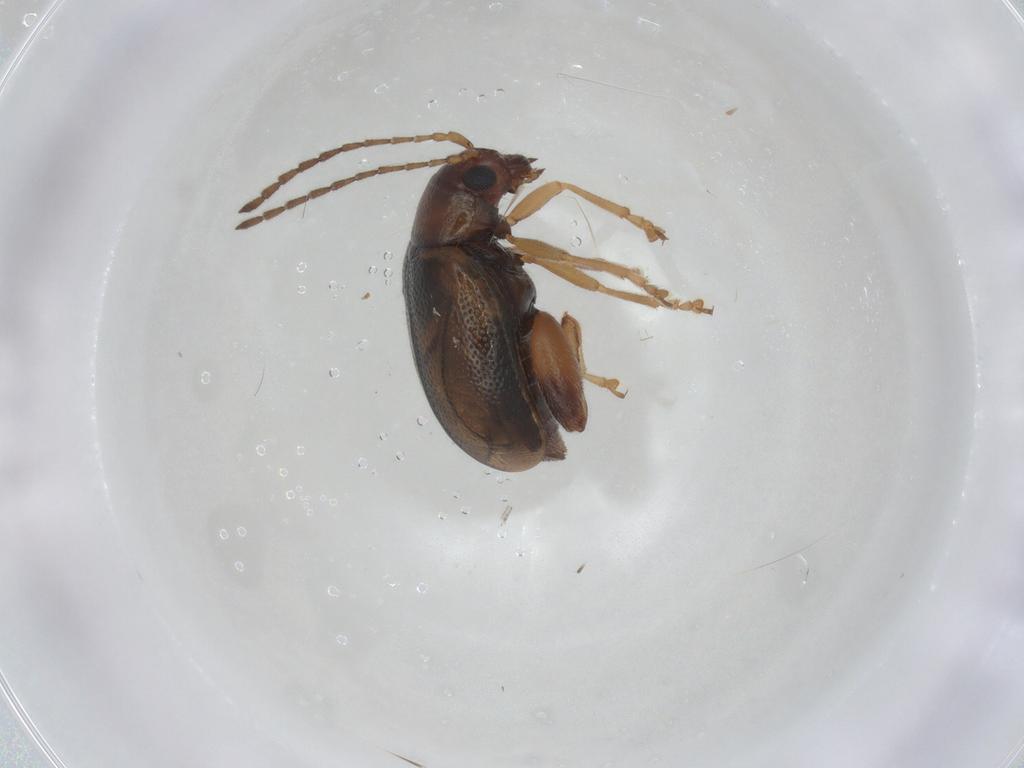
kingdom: Animalia
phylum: Arthropoda
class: Insecta
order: Coleoptera
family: Chrysomelidae
